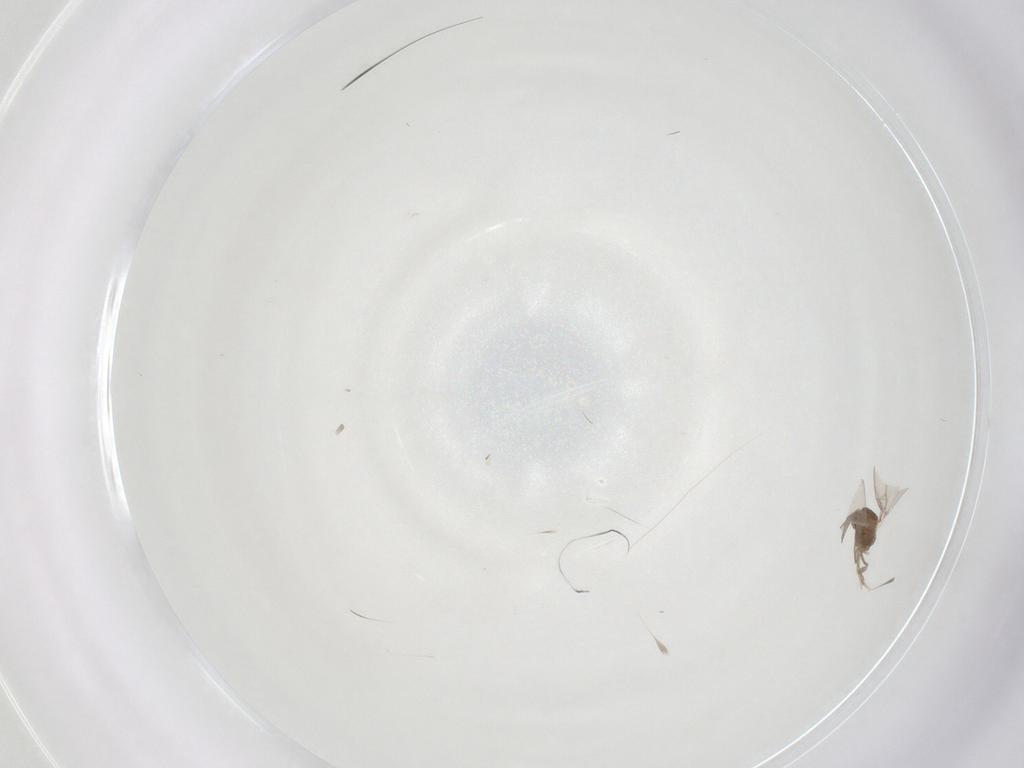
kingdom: Animalia
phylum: Arthropoda
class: Insecta
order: Diptera
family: Cecidomyiidae
